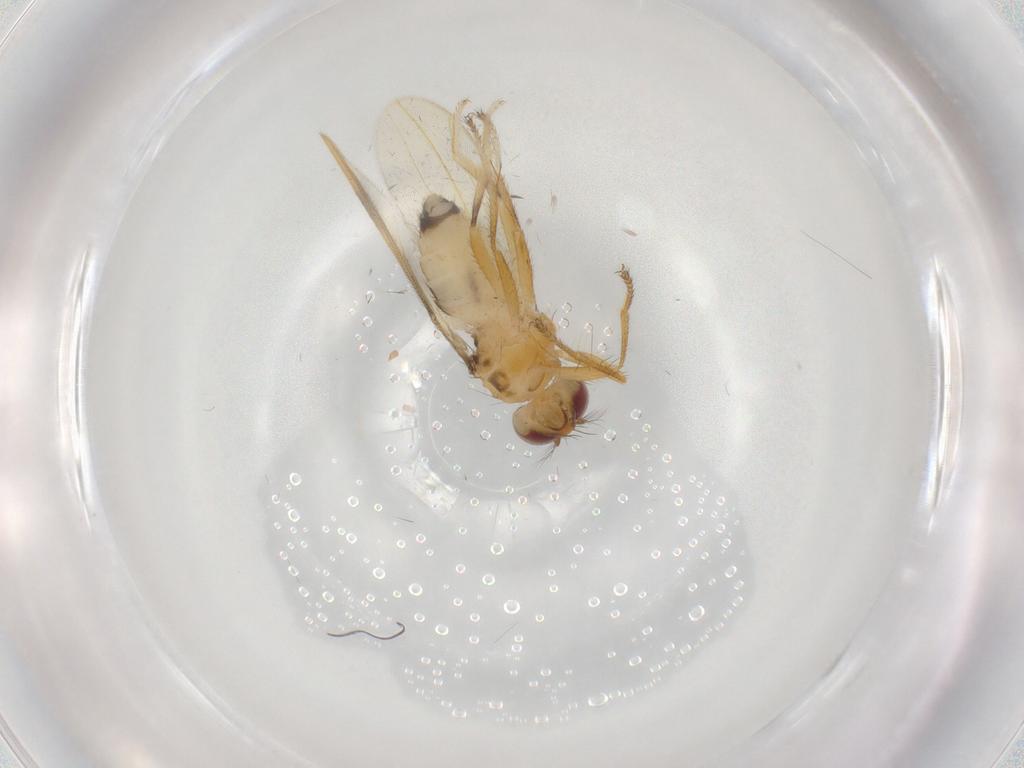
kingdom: Animalia
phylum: Arthropoda
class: Insecta
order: Diptera
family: Periscelididae
